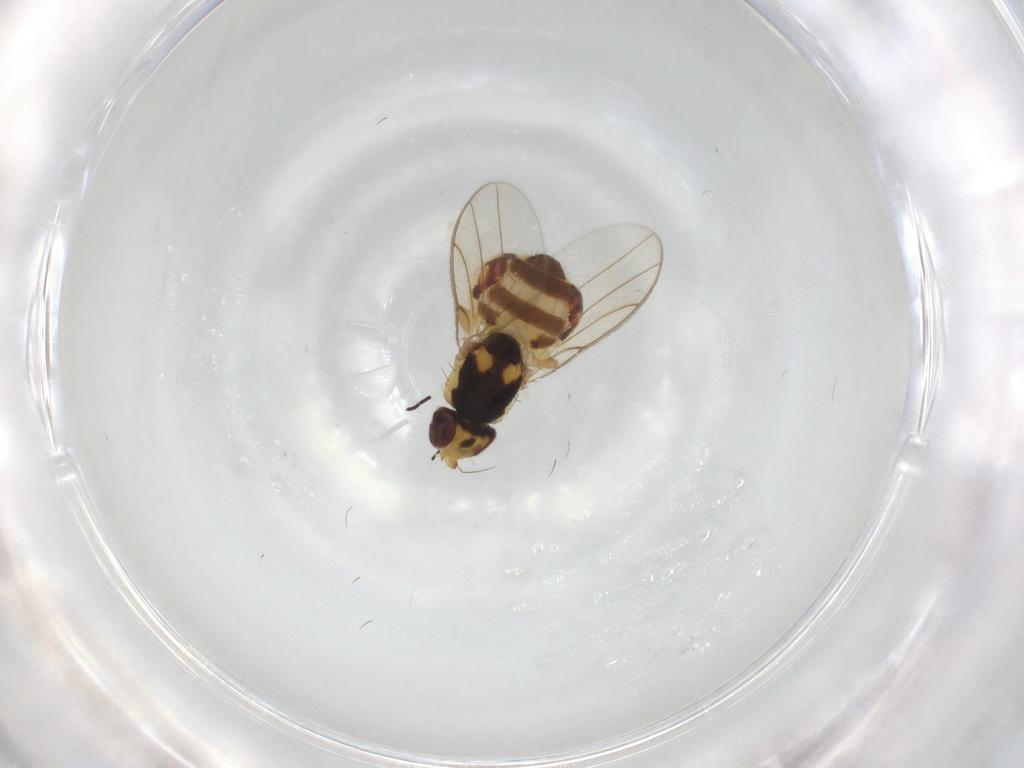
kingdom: Animalia
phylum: Arthropoda
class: Insecta
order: Diptera
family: Chloropidae
